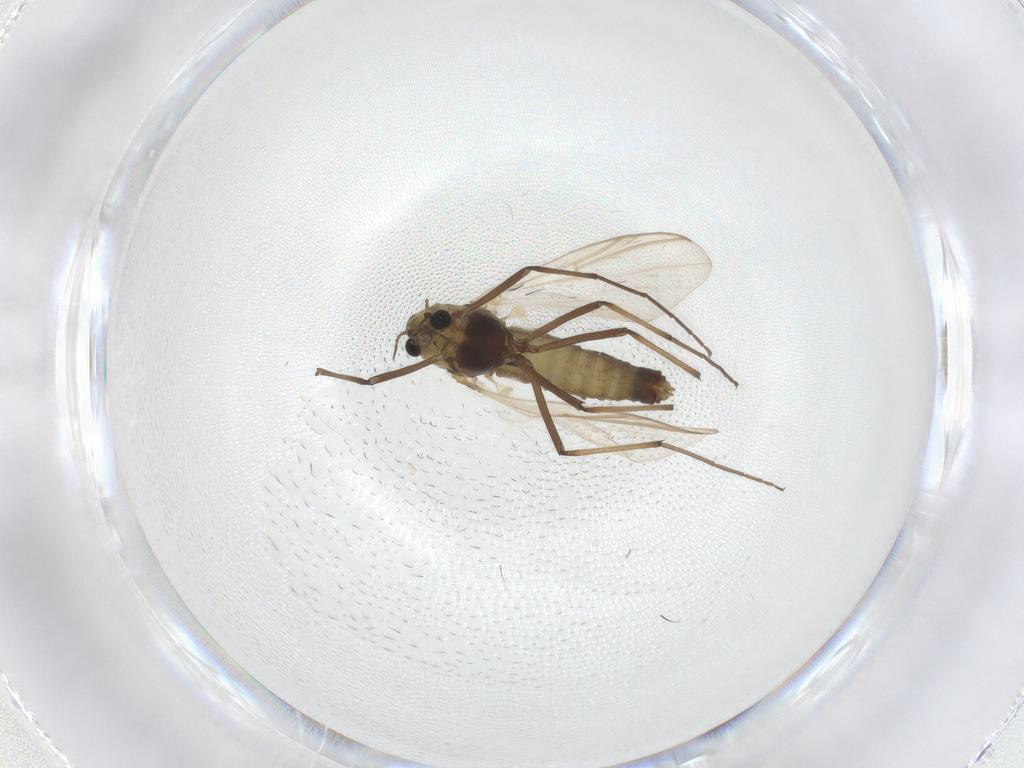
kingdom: Animalia
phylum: Arthropoda
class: Insecta
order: Diptera
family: Chironomidae
